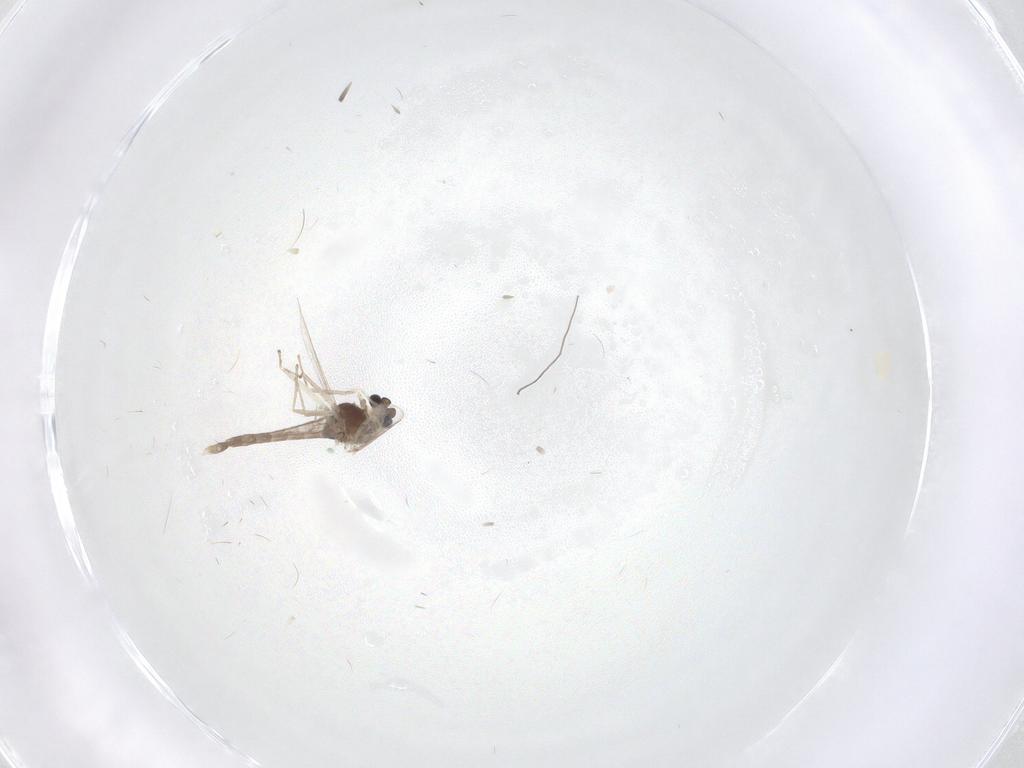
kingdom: Animalia
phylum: Arthropoda
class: Insecta
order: Diptera
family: Chironomidae
